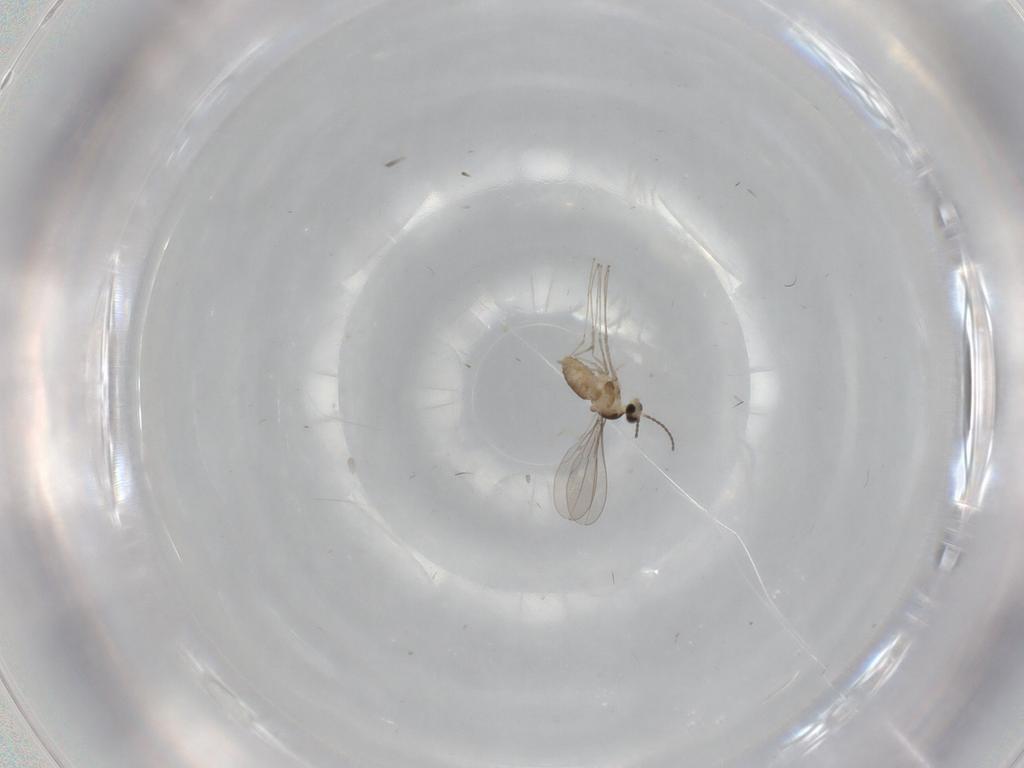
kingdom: Animalia
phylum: Arthropoda
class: Insecta
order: Diptera
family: Cecidomyiidae
